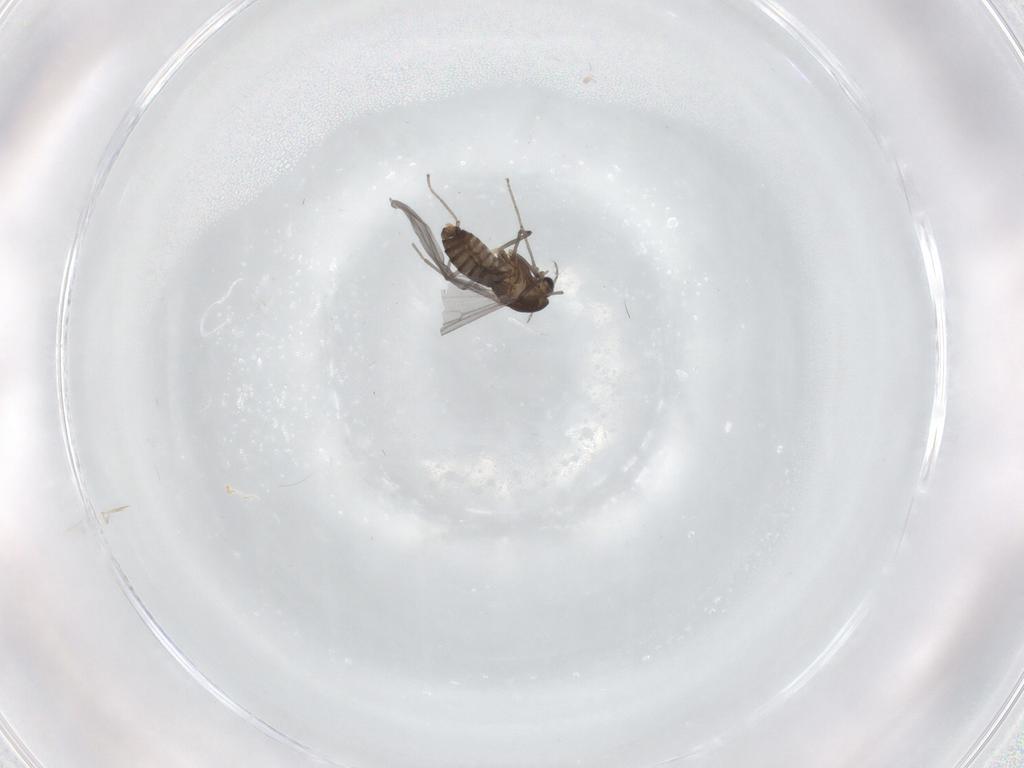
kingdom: Animalia
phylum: Arthropoda
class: Insecta
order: Diptera
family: Chironomidae
